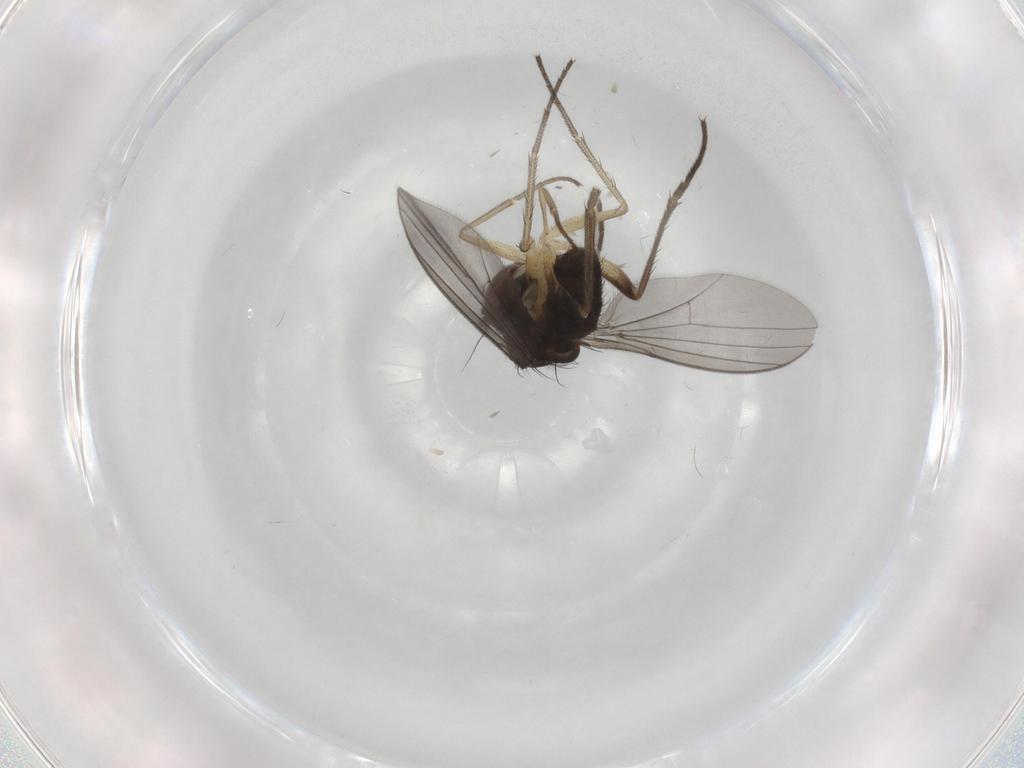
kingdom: Animalia
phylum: Arthropoda
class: Insecta
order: Diptera
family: Dolichopodidae
